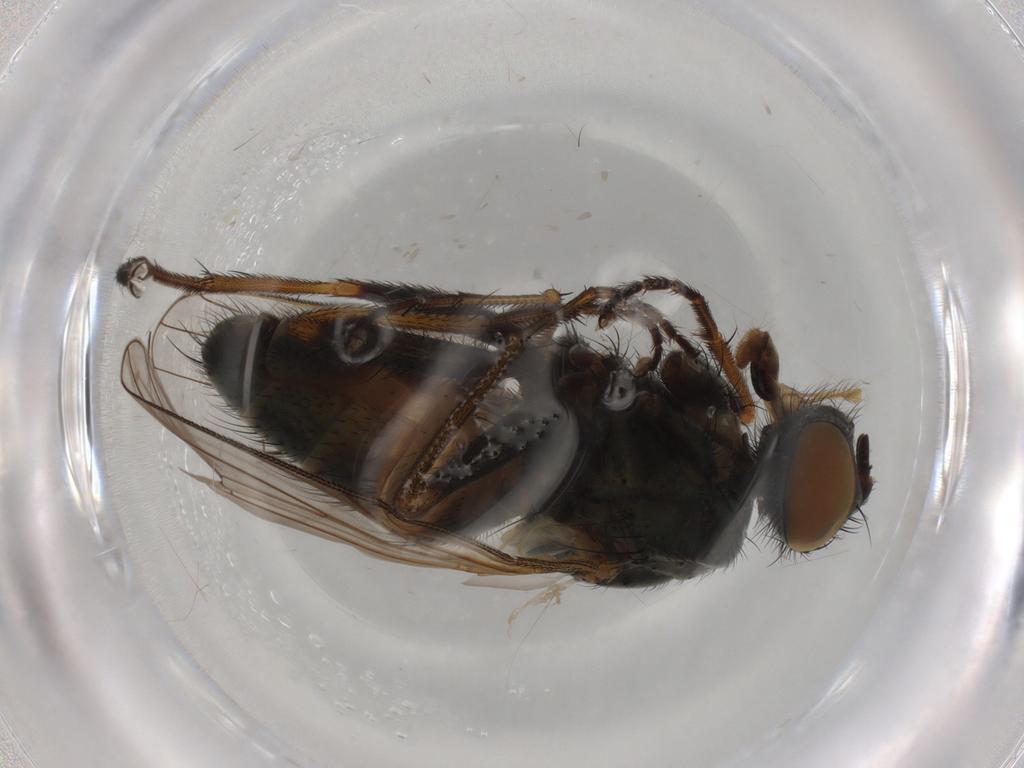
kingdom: Animalia
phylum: Arthropoda
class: Insecta
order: Diptera
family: Muscidae
